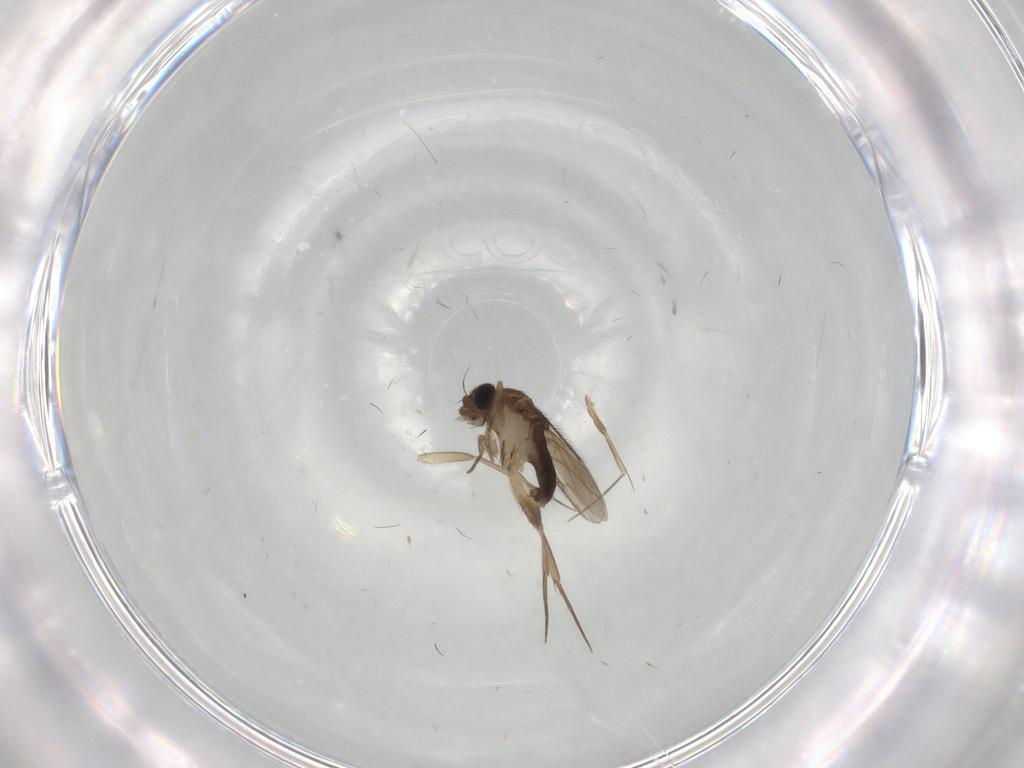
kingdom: Animalia
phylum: Arthropoda
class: Insecta
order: Diptera
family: Phoridae
